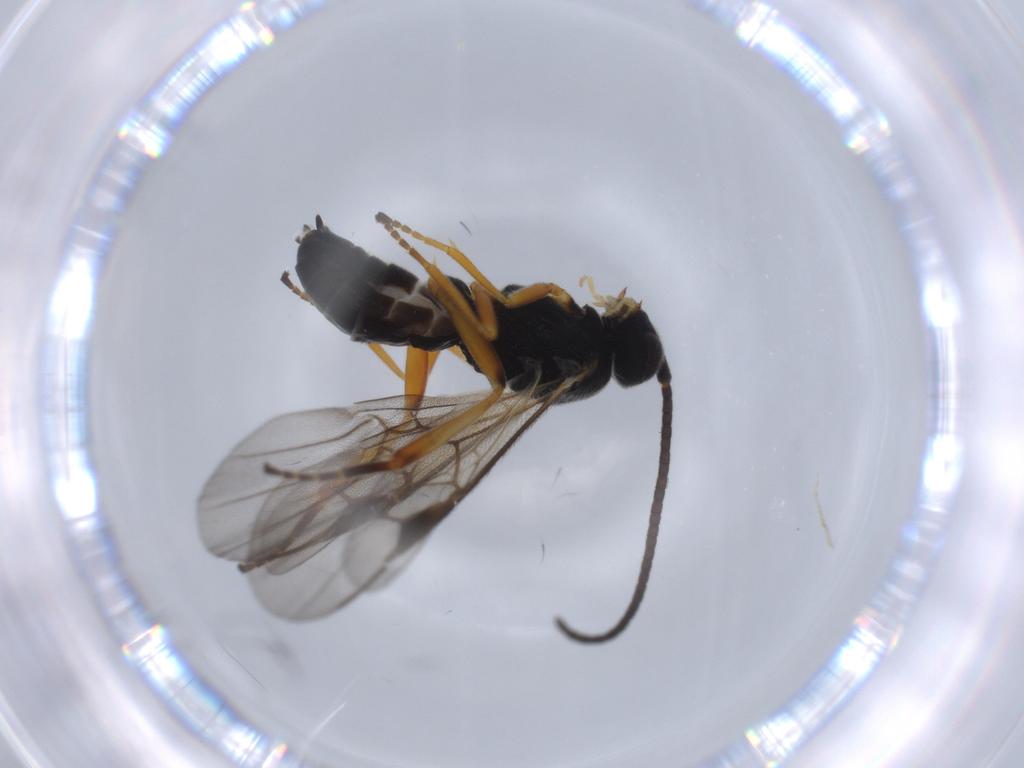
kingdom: Animalia
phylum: Arthropoda
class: Insecta
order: Hymenoptera
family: Braconidae
